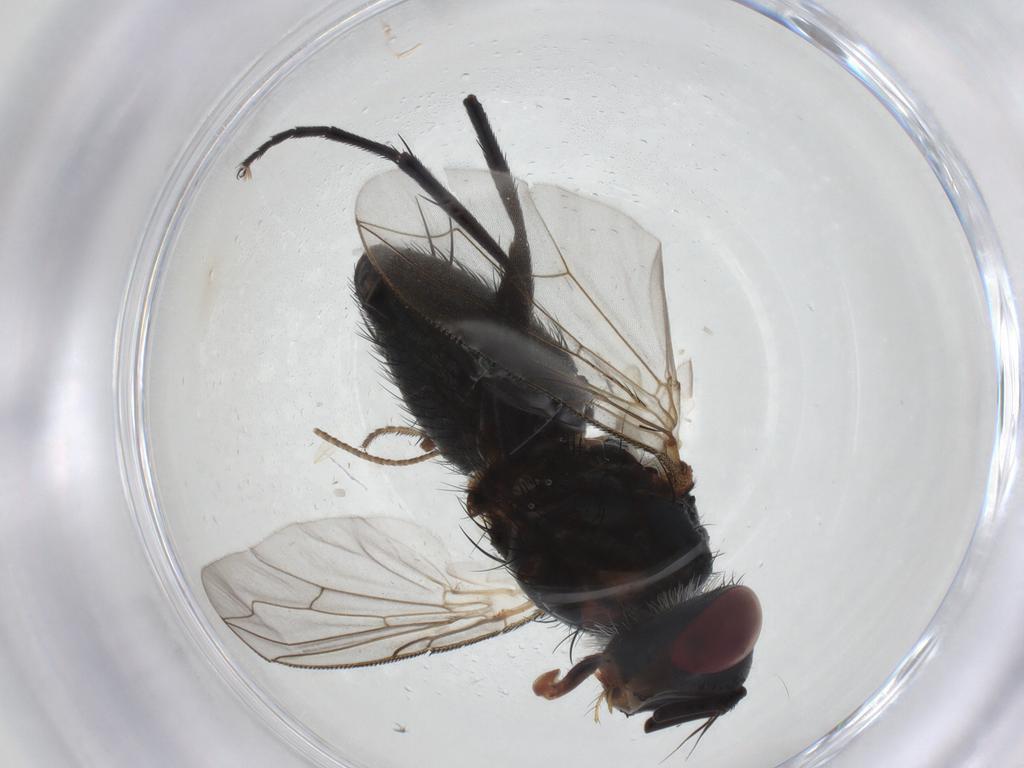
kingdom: Animalia
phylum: Arthropoda
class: Insecta
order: Diptera
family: Tachinidae
